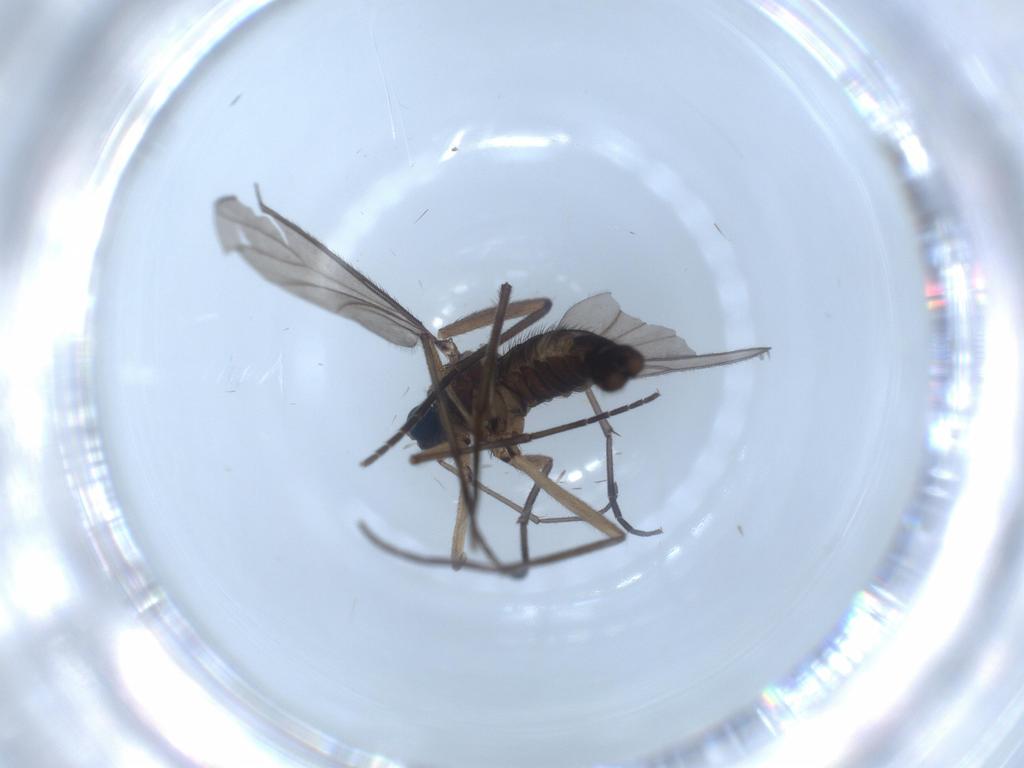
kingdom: Animalia
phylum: Arthropoda
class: Insecta
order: Diptera
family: Sciaridae
